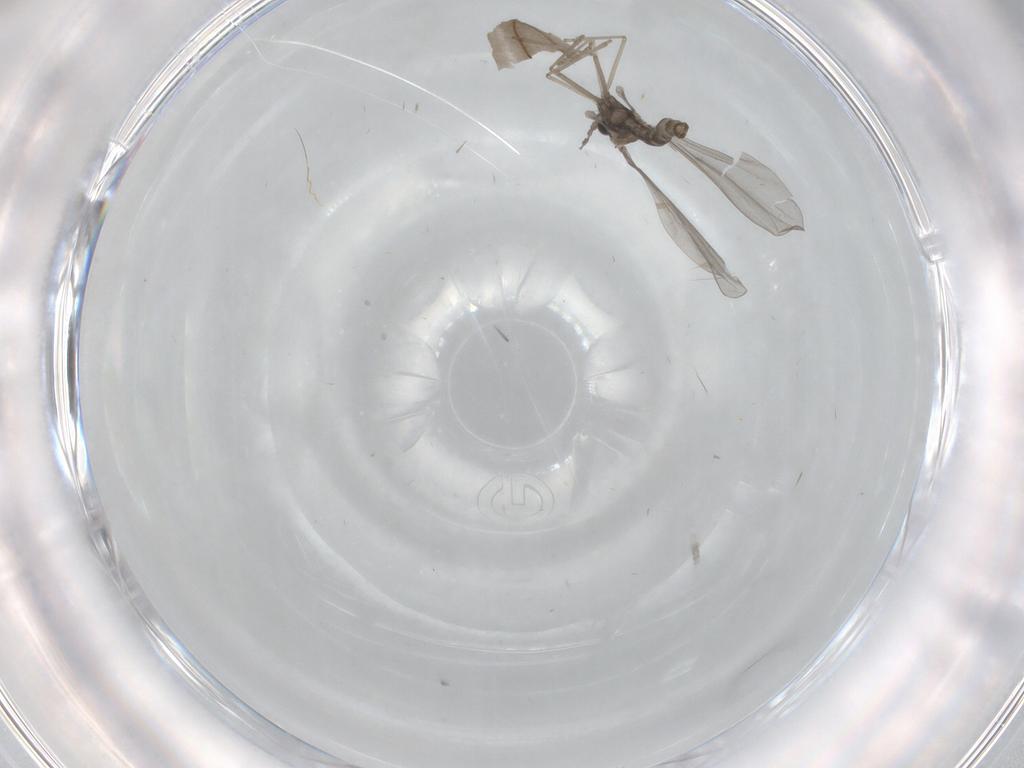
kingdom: Animalia
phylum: Arthropoda
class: Insecta
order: Diptera
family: Cecidomyiidae
